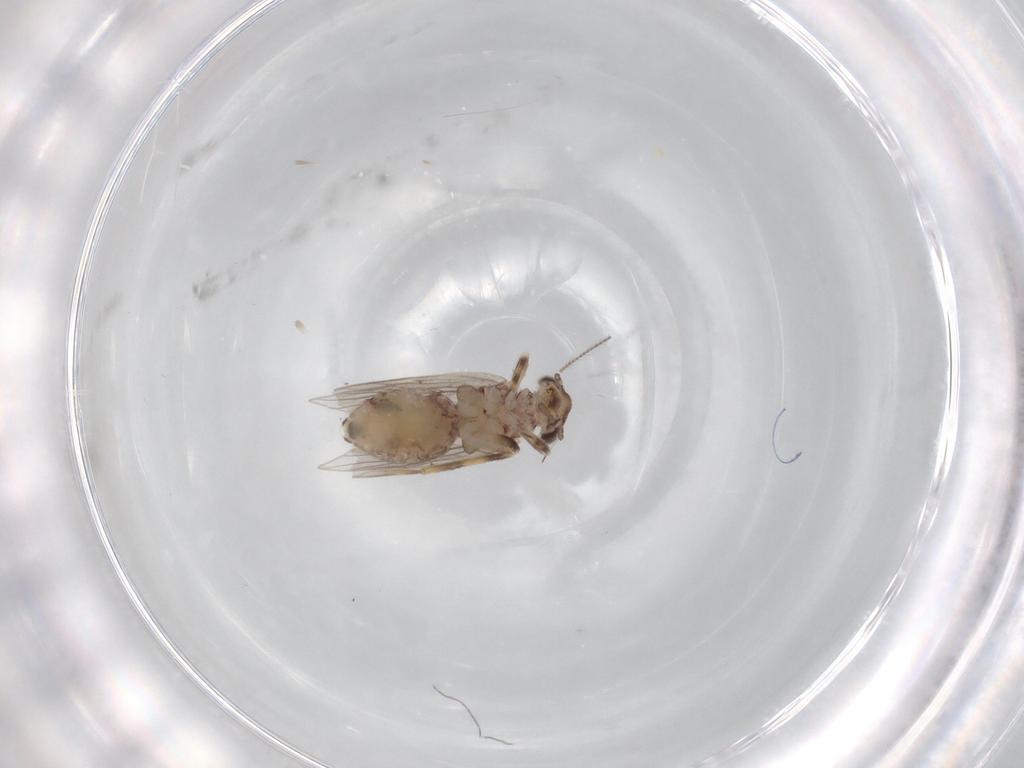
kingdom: Animalia
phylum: Arthropoda
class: Insecta
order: Psocodea
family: Lepidopsocidae
